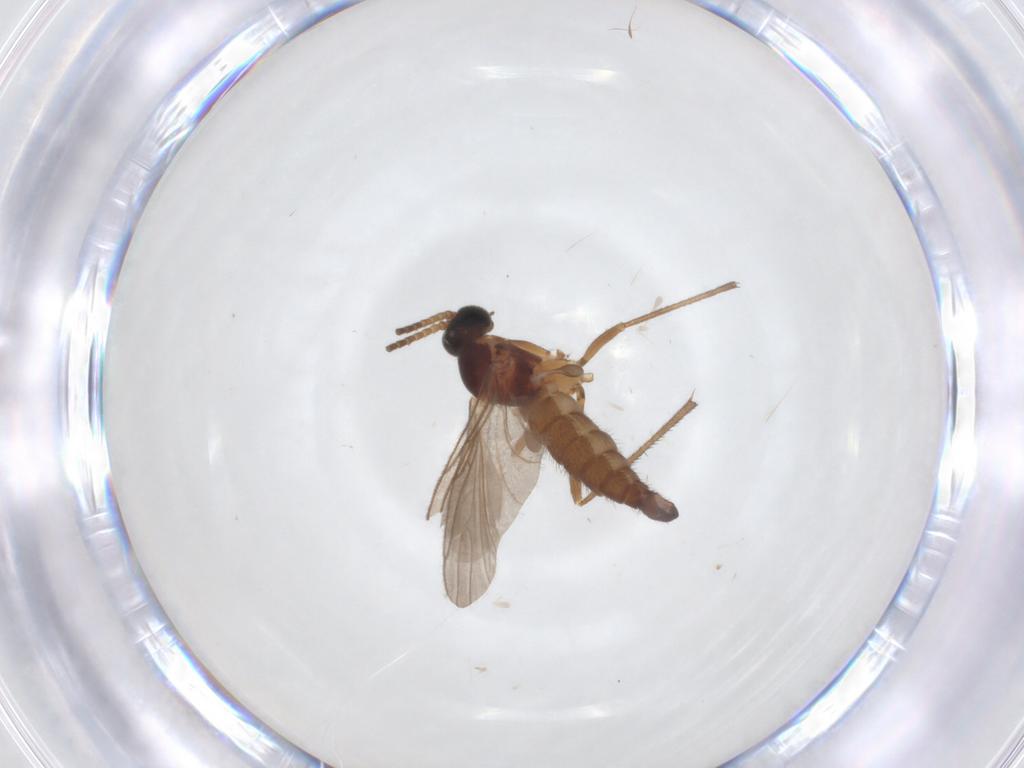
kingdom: Animalia
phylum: Arthropoda
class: Insecta
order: Diptera
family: Sciaridae
